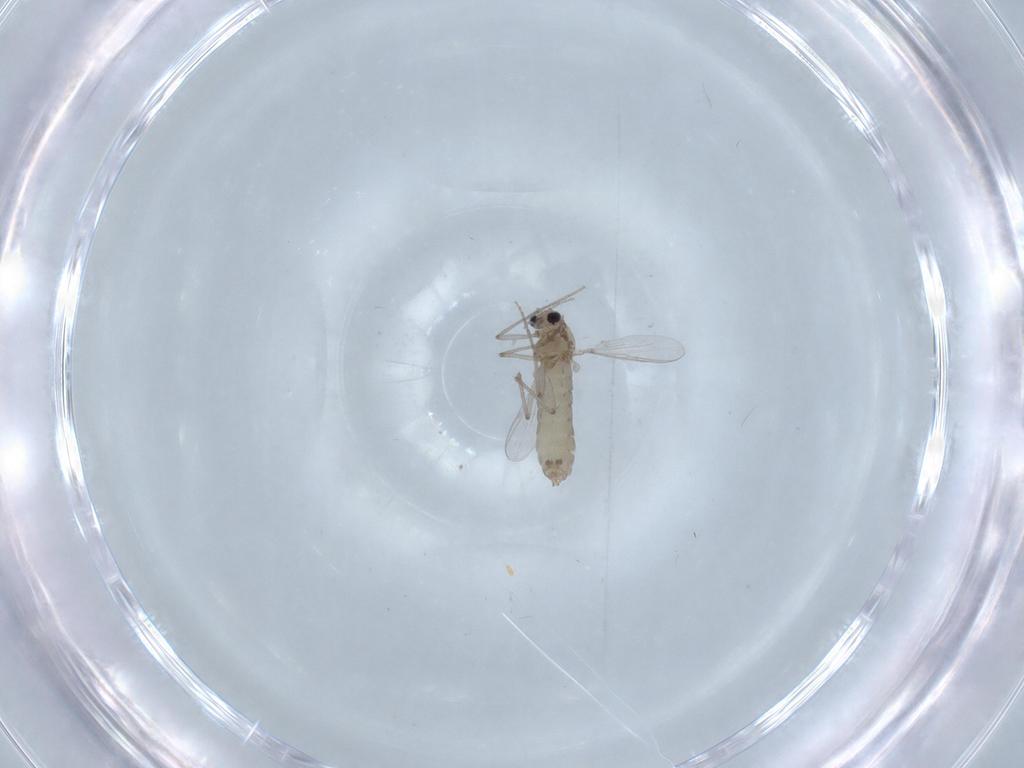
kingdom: Animalia
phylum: Arthropoda
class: Insecta
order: Diptera
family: Chironomidae
